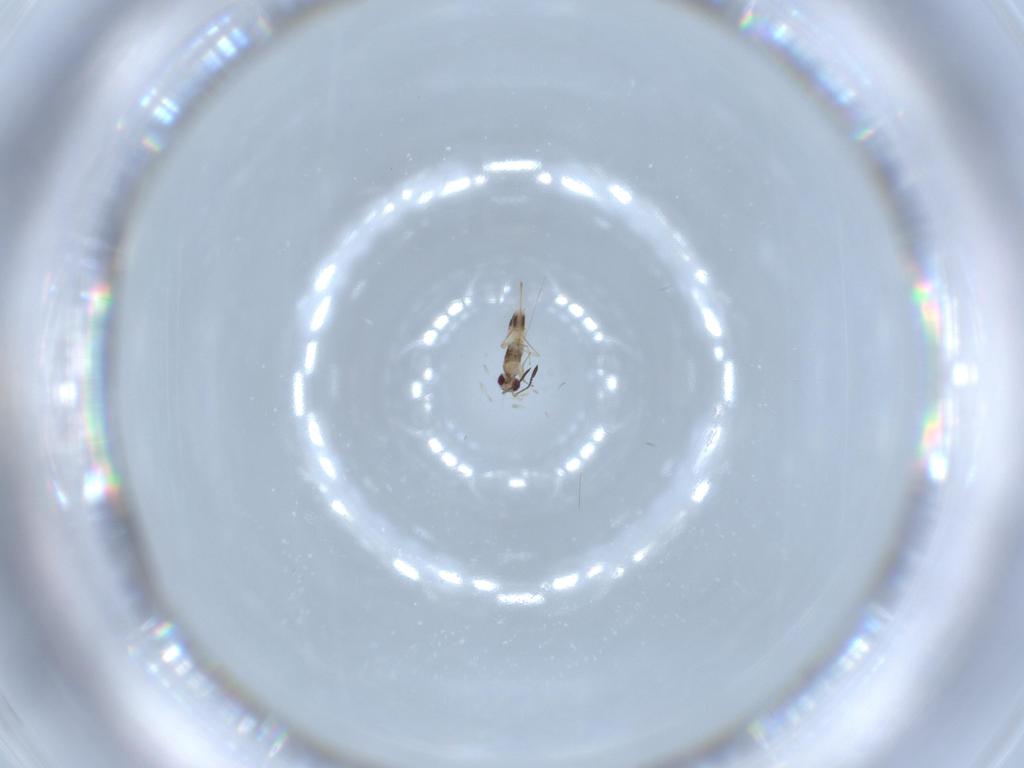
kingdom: Animalia
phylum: Arthropoda
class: Insecta
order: Hymenoptera
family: Mymaridae
